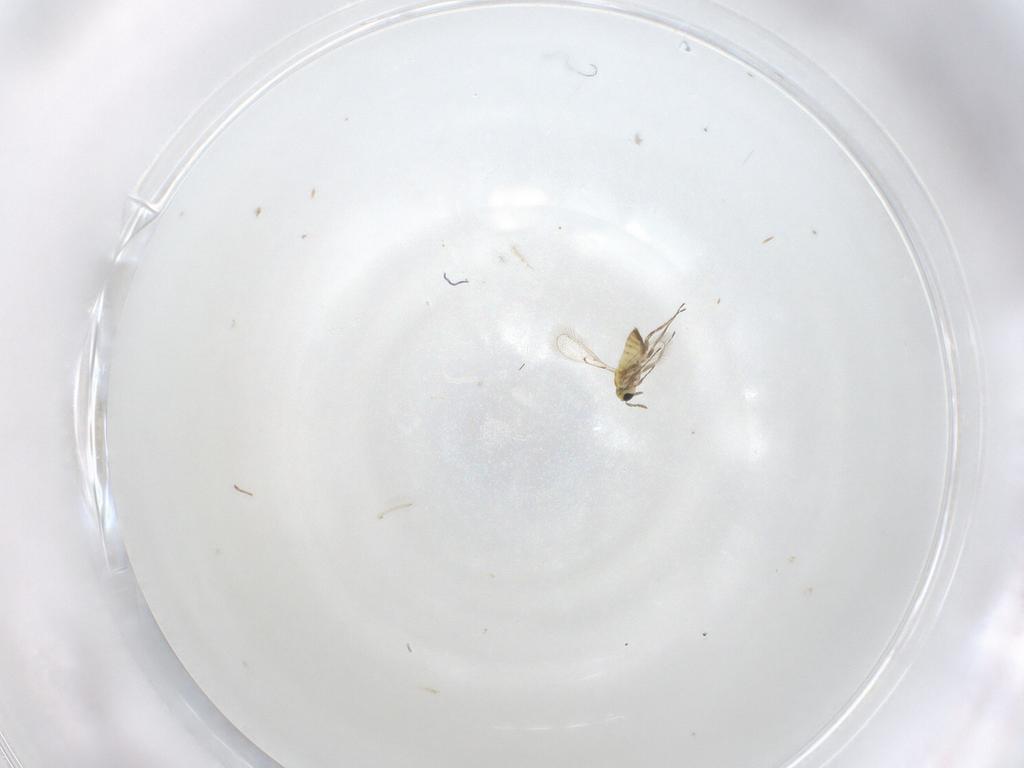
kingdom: Animalia
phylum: Arthropoda
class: Insecta
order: Hymenoptera
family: Trichogrammatidae
